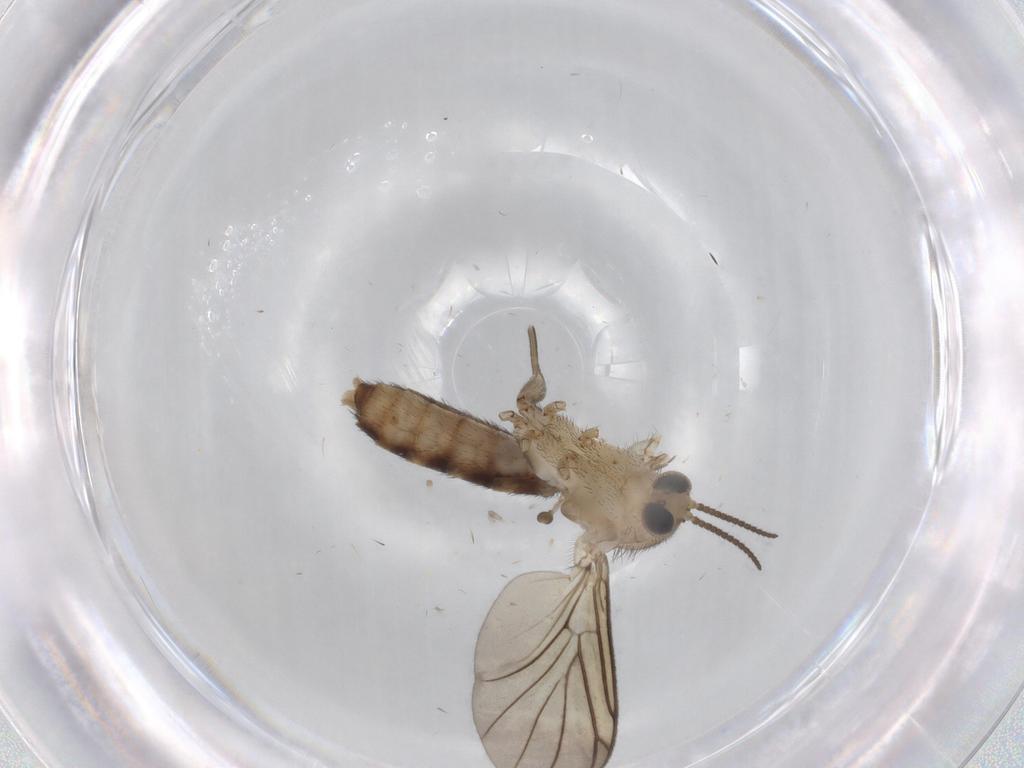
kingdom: Animalia
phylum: Arthropoda
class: Insecta
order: Diptera
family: Mycetophilidae
